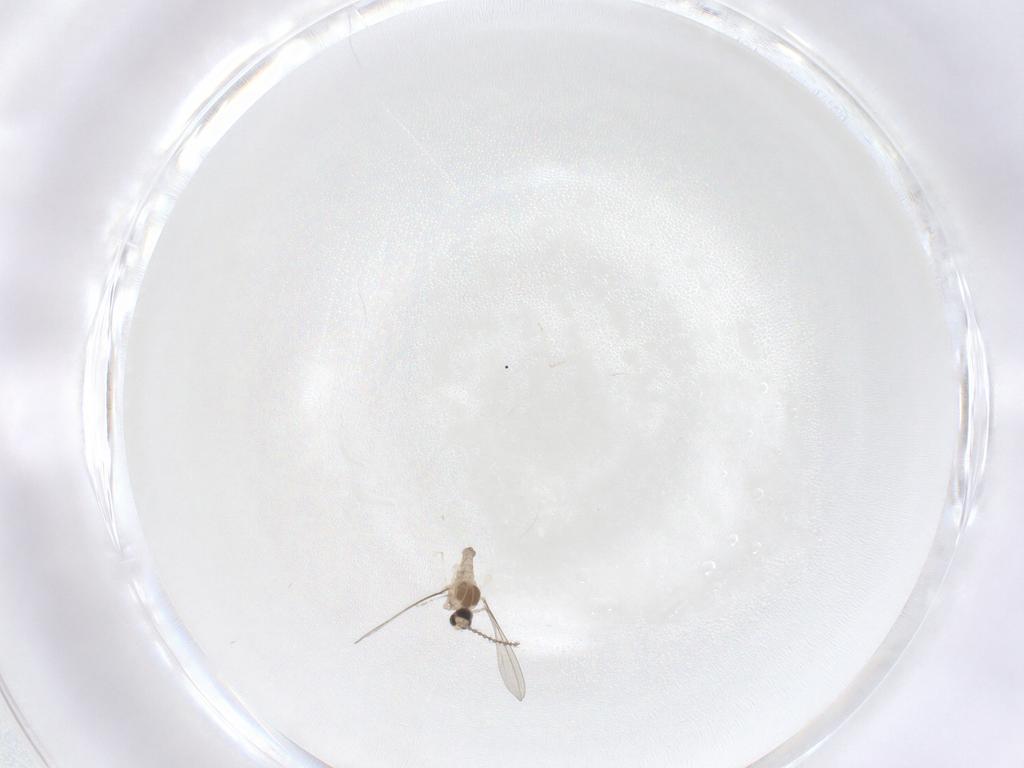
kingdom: Animalia
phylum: Arthropoda
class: Insecta
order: Diptera
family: Cecidomyiidae
